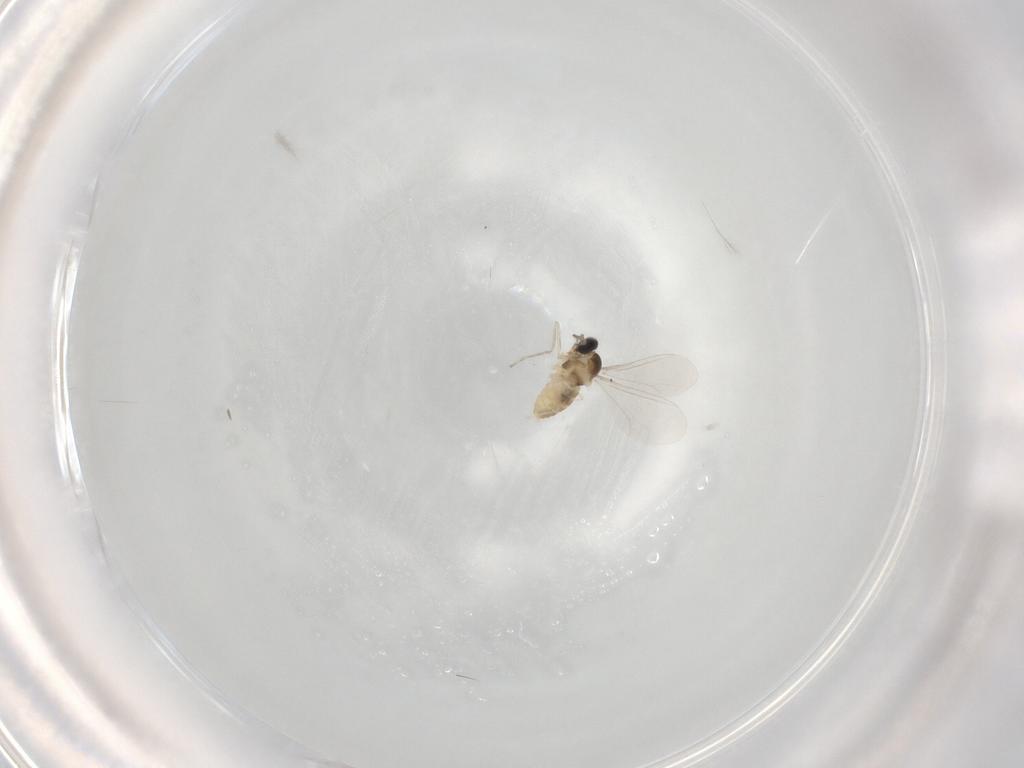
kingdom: Animalia
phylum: Arthropoda
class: Insecta
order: Diptera
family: Cecidomyiidae
